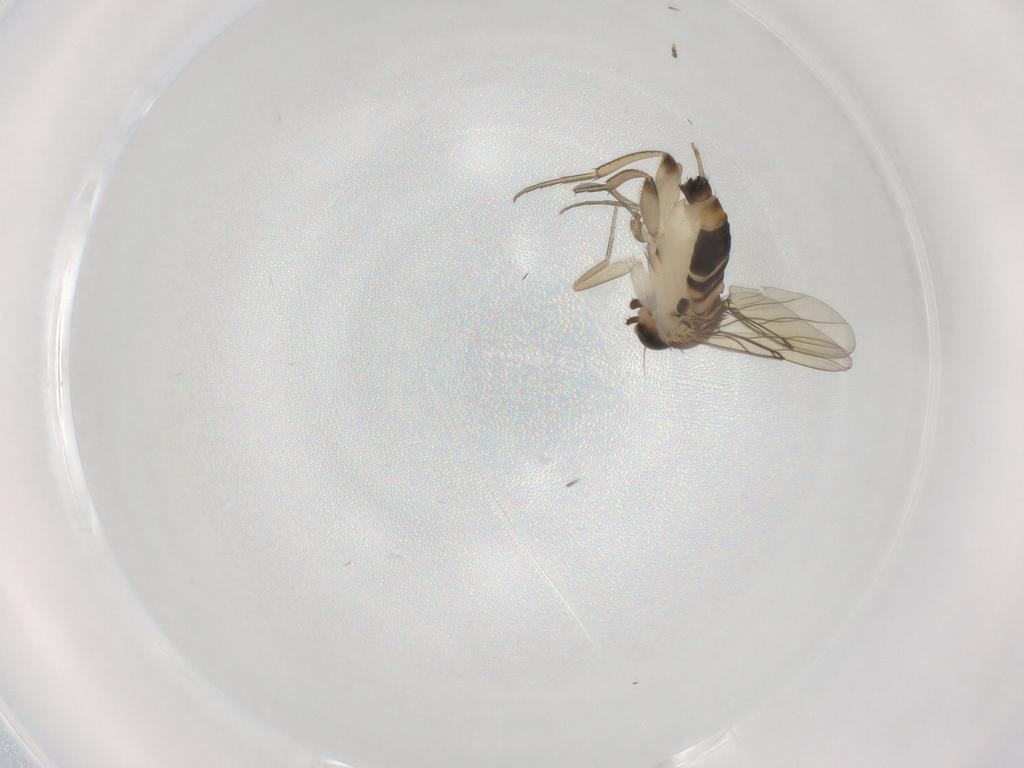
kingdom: Animalia
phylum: Arthropoda
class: Insecta
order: Diptera
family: Phoridae
